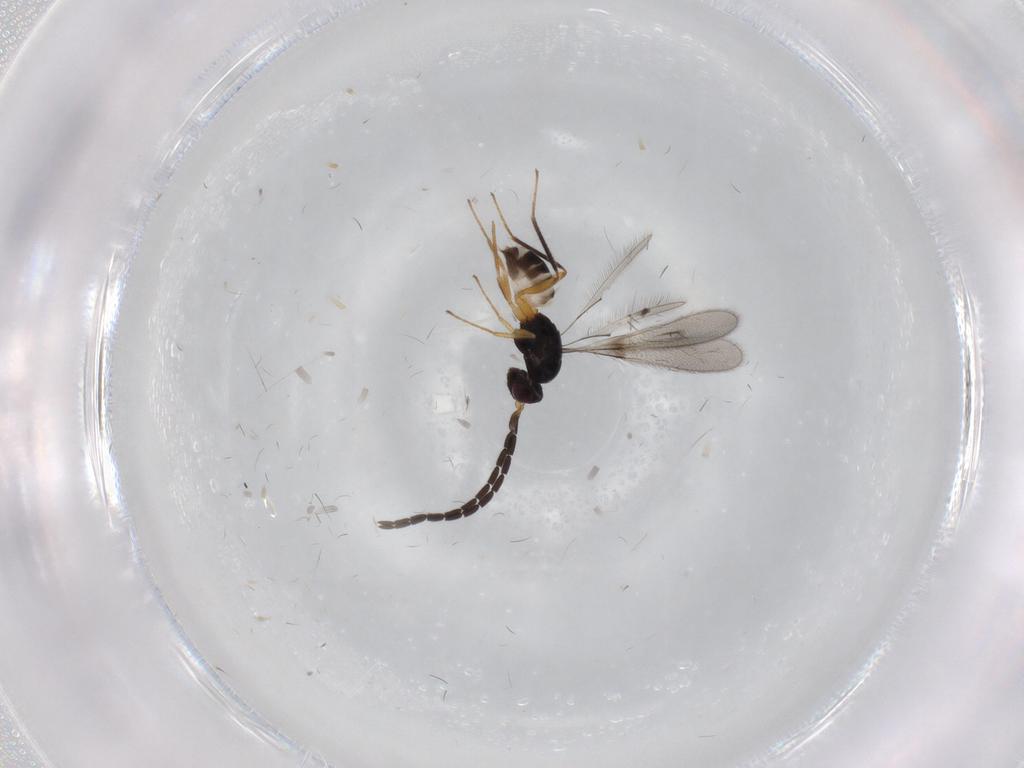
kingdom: Animalia
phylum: Arthropoda
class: Insecta
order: Hymenoptera
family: Mymaridae
